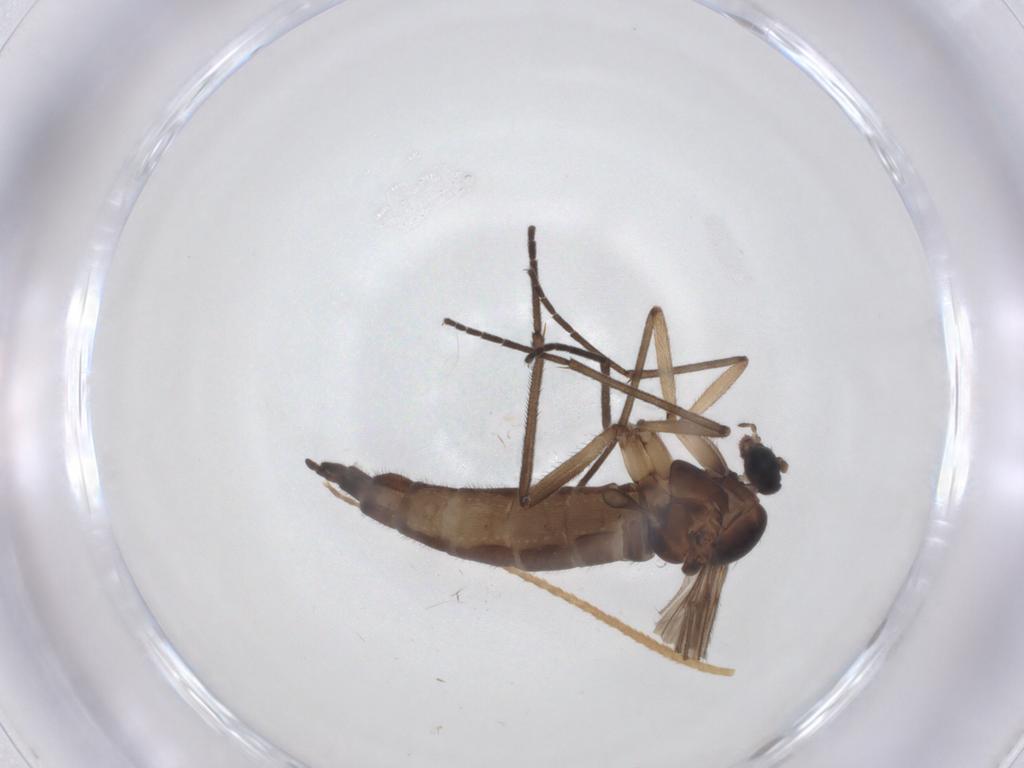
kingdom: Animalia
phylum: Arthropoda
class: Insecta
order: Diptera
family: Sciaridae
